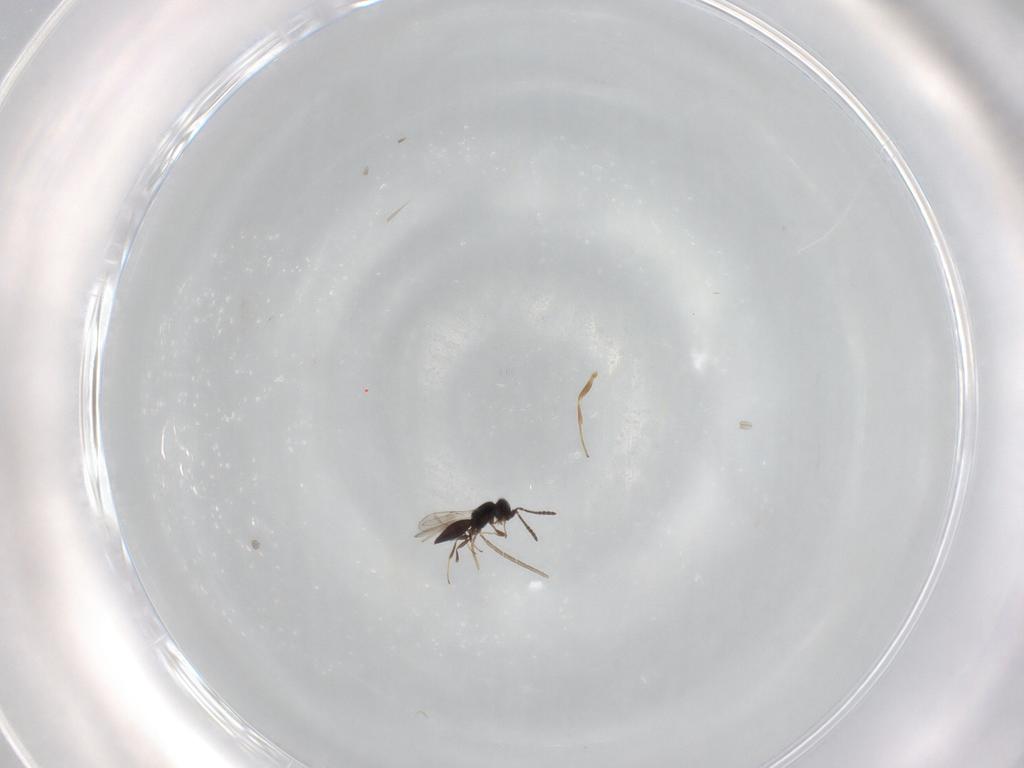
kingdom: Animalia
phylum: Arthropoda
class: Insecta
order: Hymenoptera
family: Scelionidae
